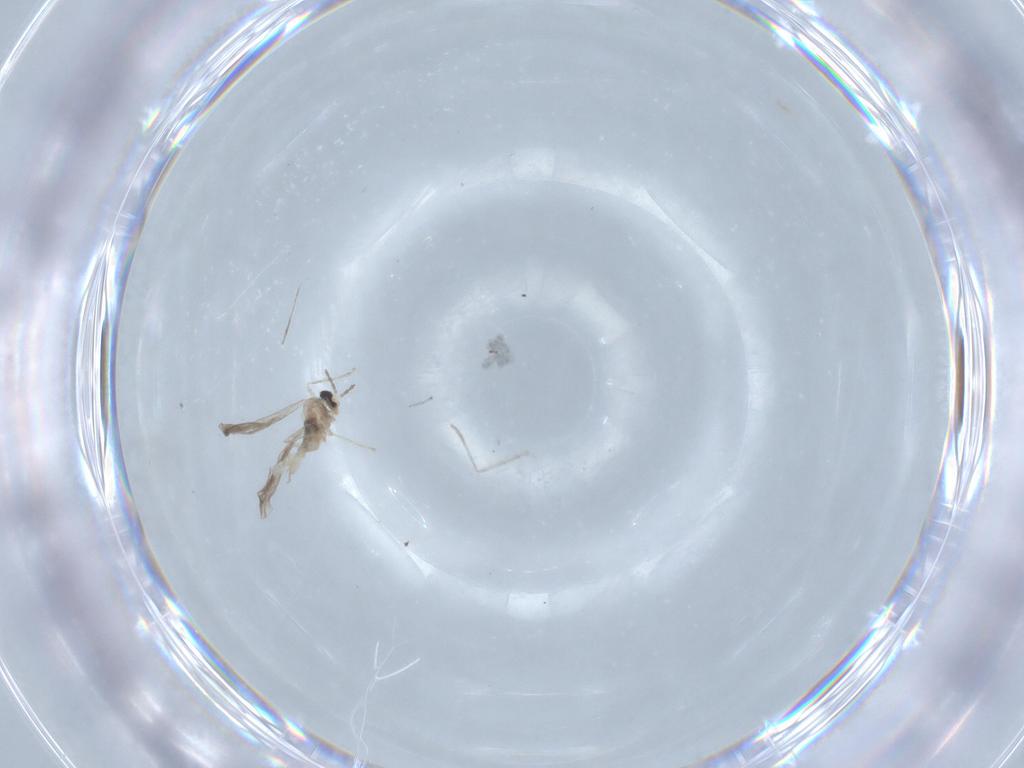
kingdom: Animalia
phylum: Arthropoda
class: Insecta
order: Diptera
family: Cecidomyiidae
